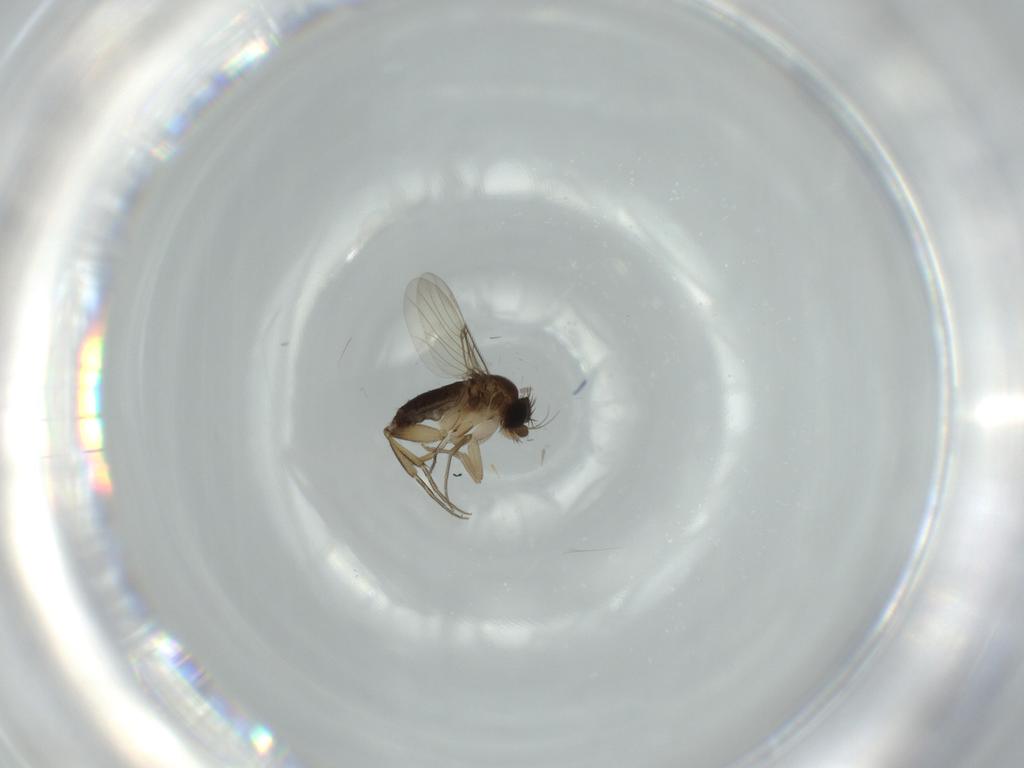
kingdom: Animalia
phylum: Arthropoda
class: Insecta
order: Diptera
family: Phoridae
